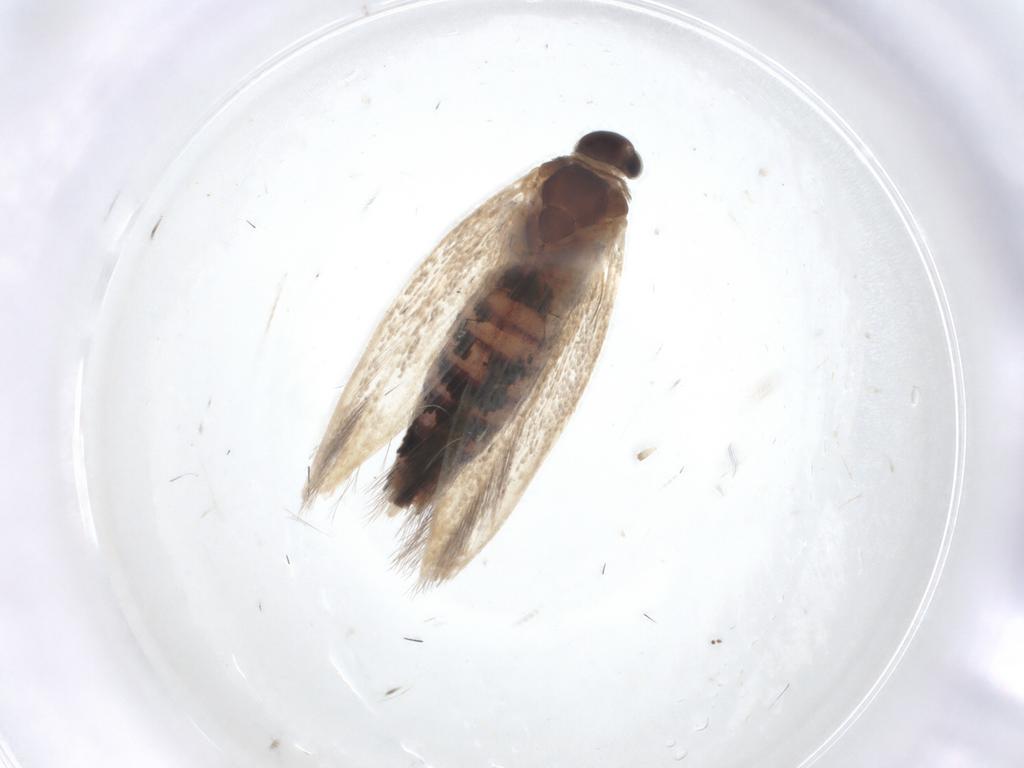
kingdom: Animalia
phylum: Arthropoda
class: Insecta
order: Lepidoptera
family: Cosmopterigidae
